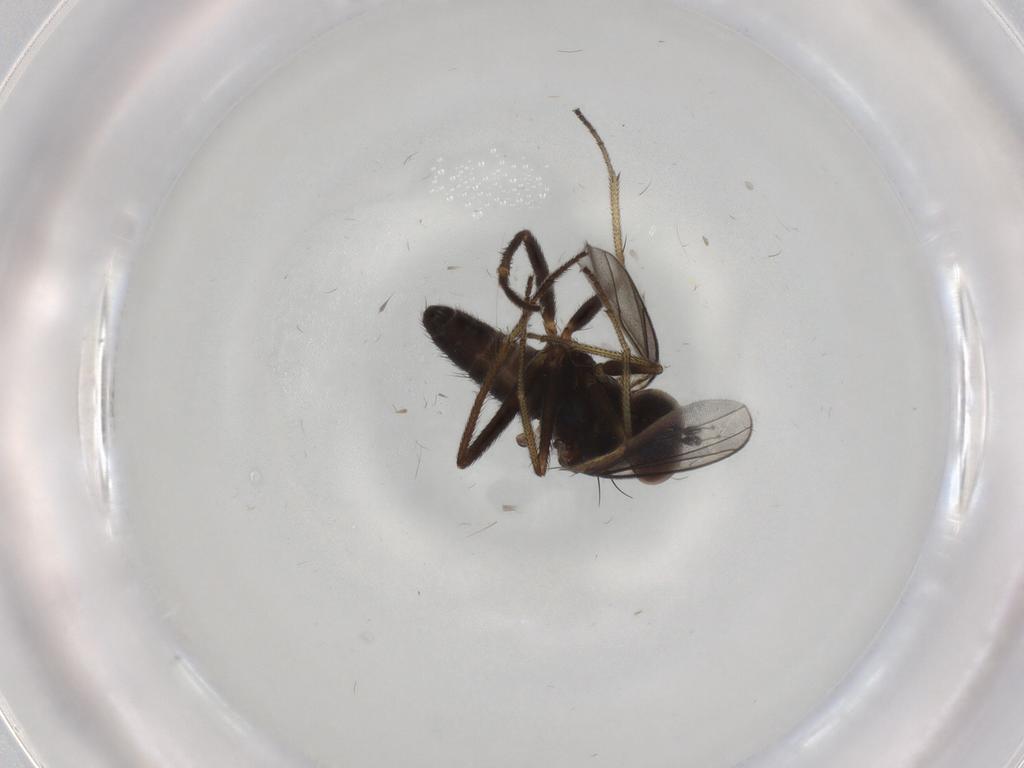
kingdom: Animalia
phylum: Arthropoda
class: Insecta
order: Diptera
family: Dolichopodidae
